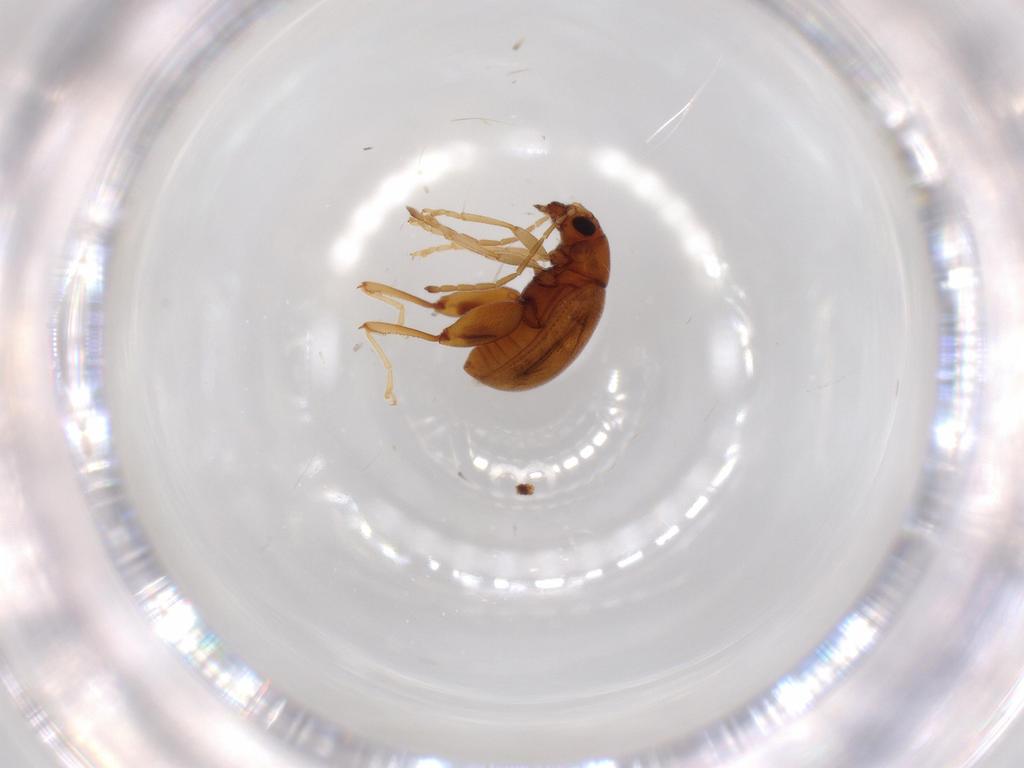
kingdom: Animalia
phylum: Arthropoda
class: Insecta
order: Coleoptera
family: Chrysomelidae
